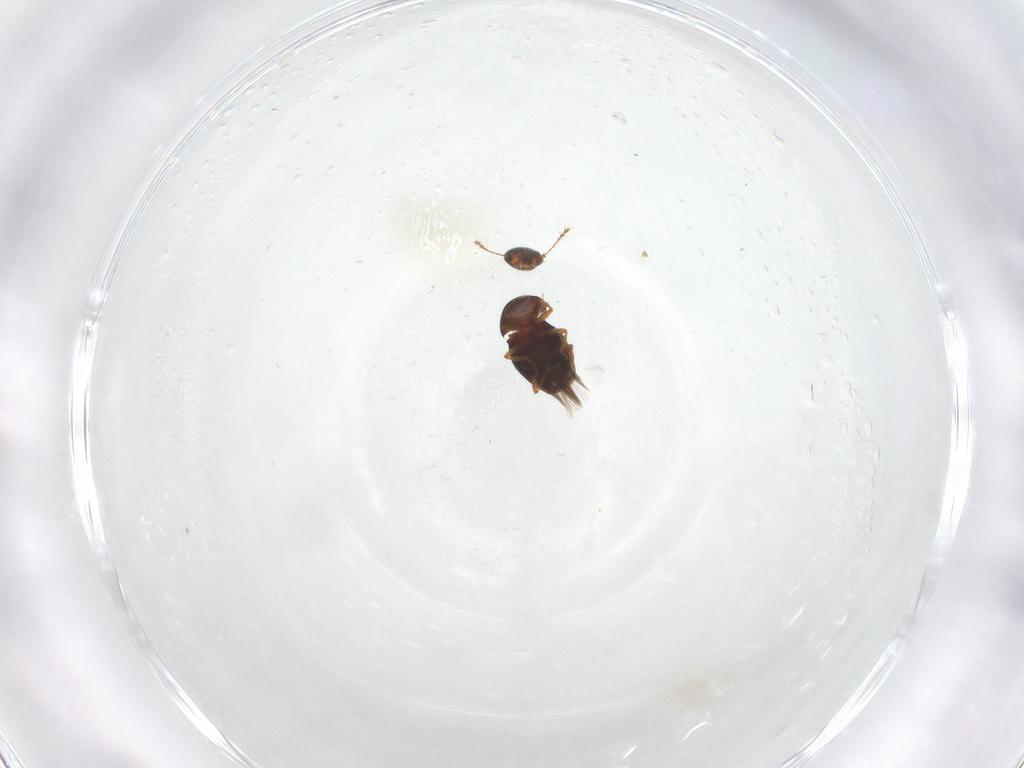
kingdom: Animalia
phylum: Arthropoda
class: Insecta
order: Coleoptera
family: Ptiliidae
